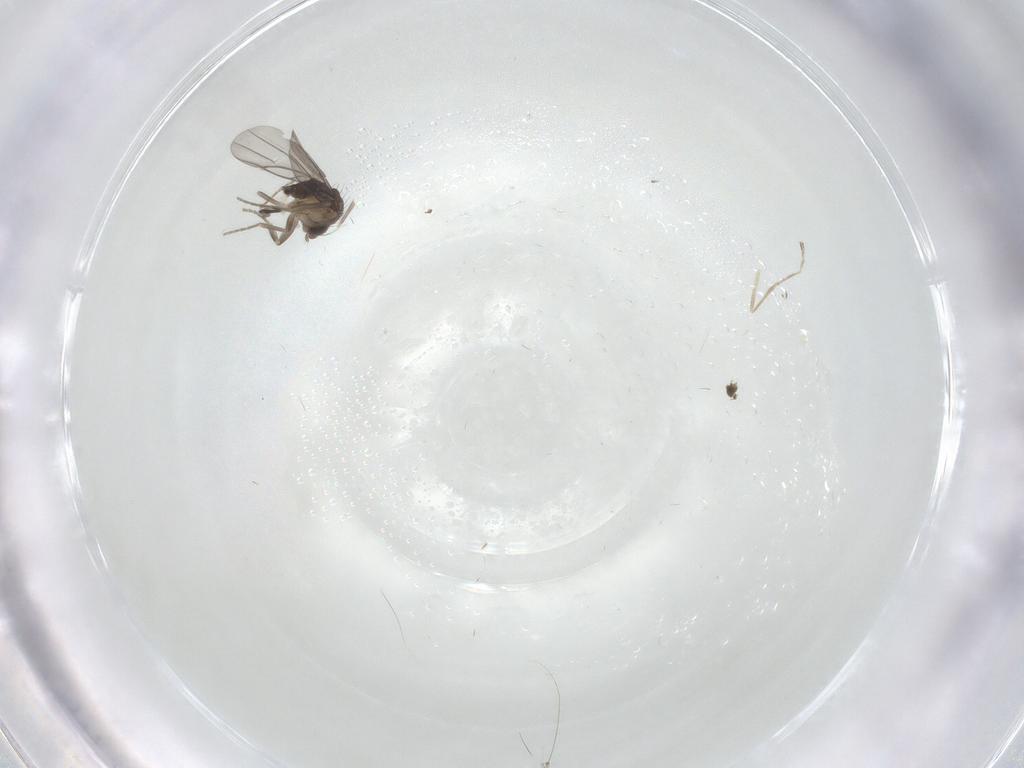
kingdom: Animalia
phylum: Arthropoda
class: Insecta
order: Diptera
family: Phoridae
